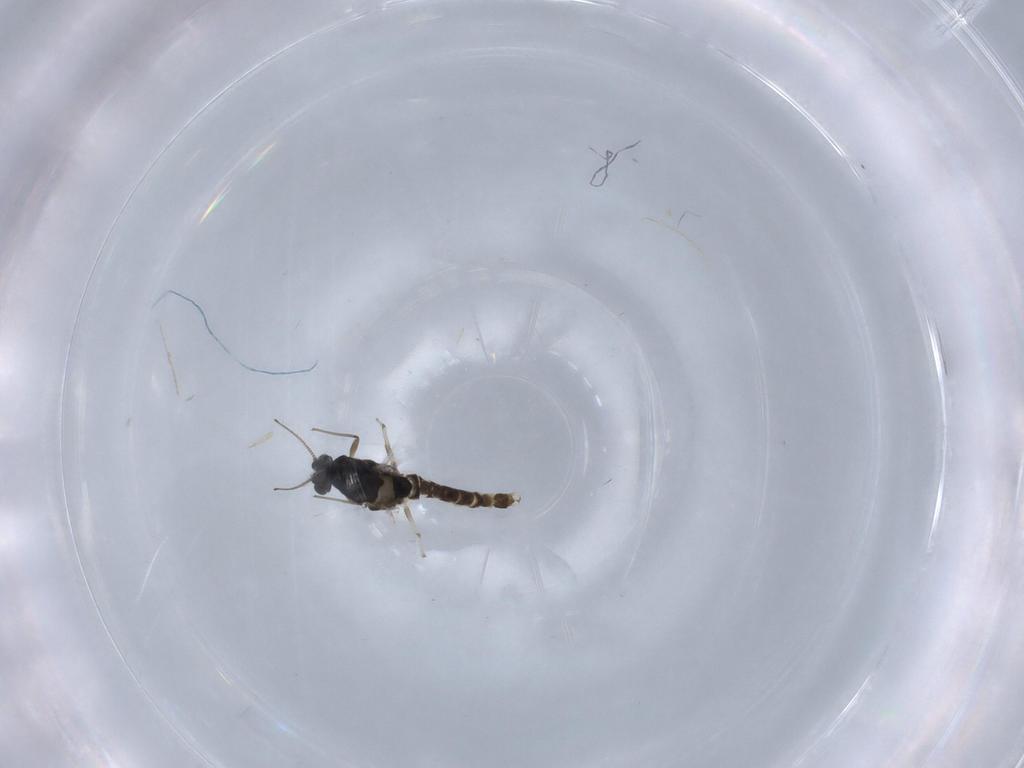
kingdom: Animalia
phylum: Arthropoda
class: Insecta
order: Diptera
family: Chironomidae
